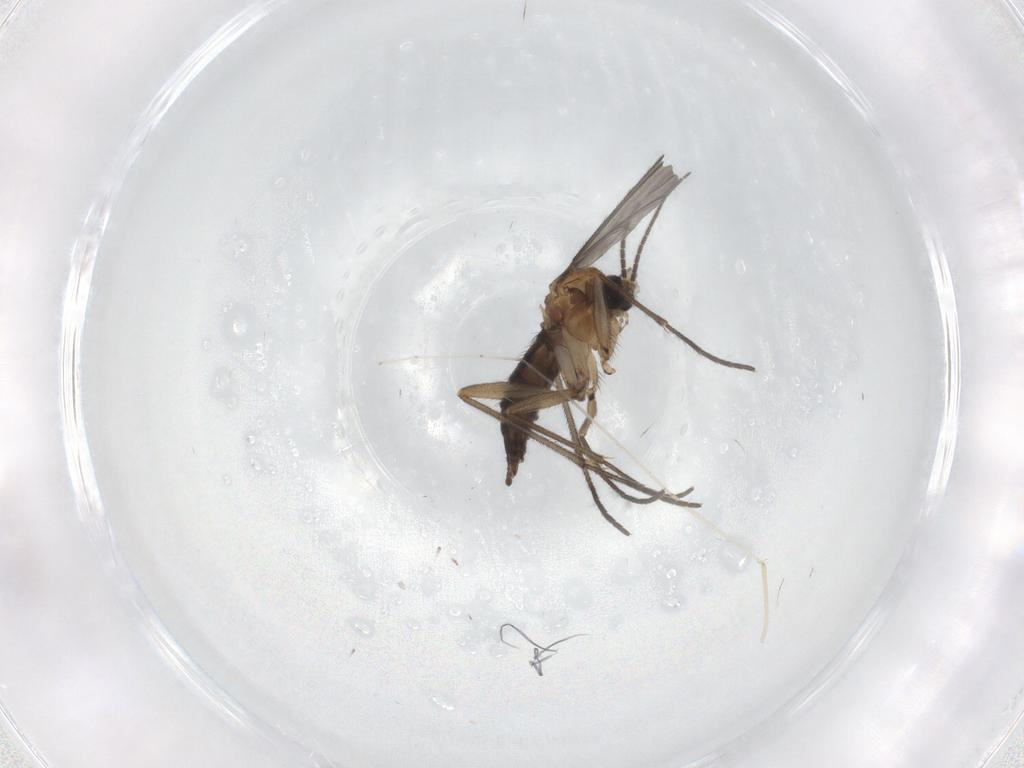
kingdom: Animalia
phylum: Arthropoda
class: Insecta
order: Diptera
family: Sciaridae
